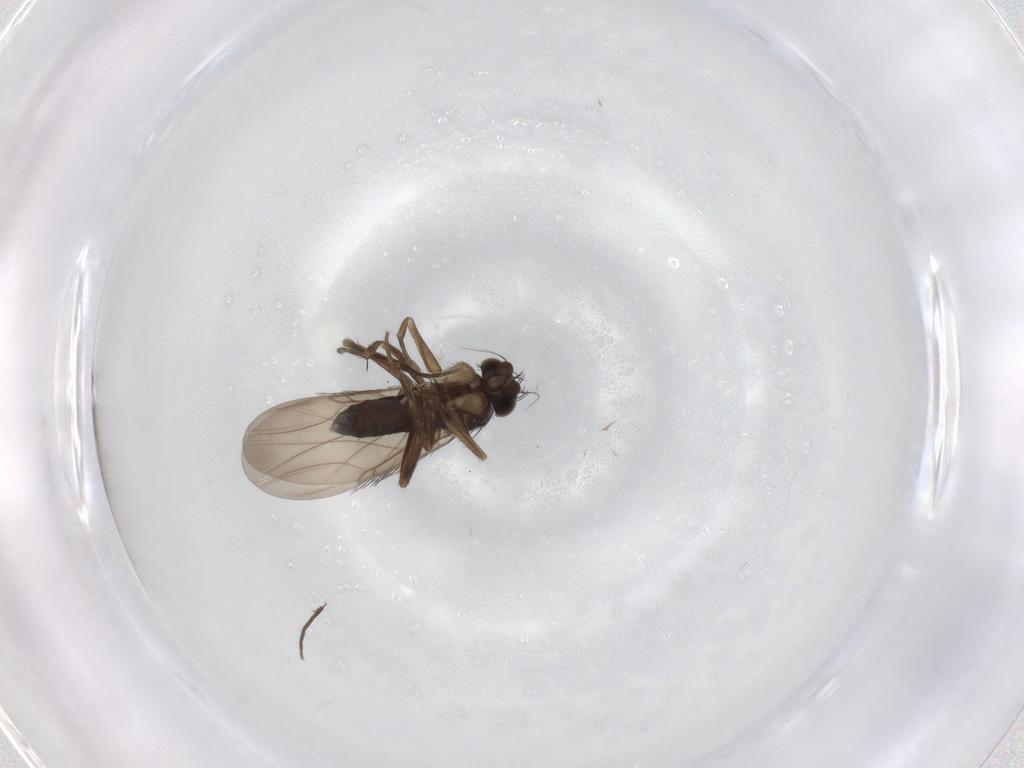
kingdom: Animalia
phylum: Arthropoda
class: Insecta
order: Diptera
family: Phoridae
